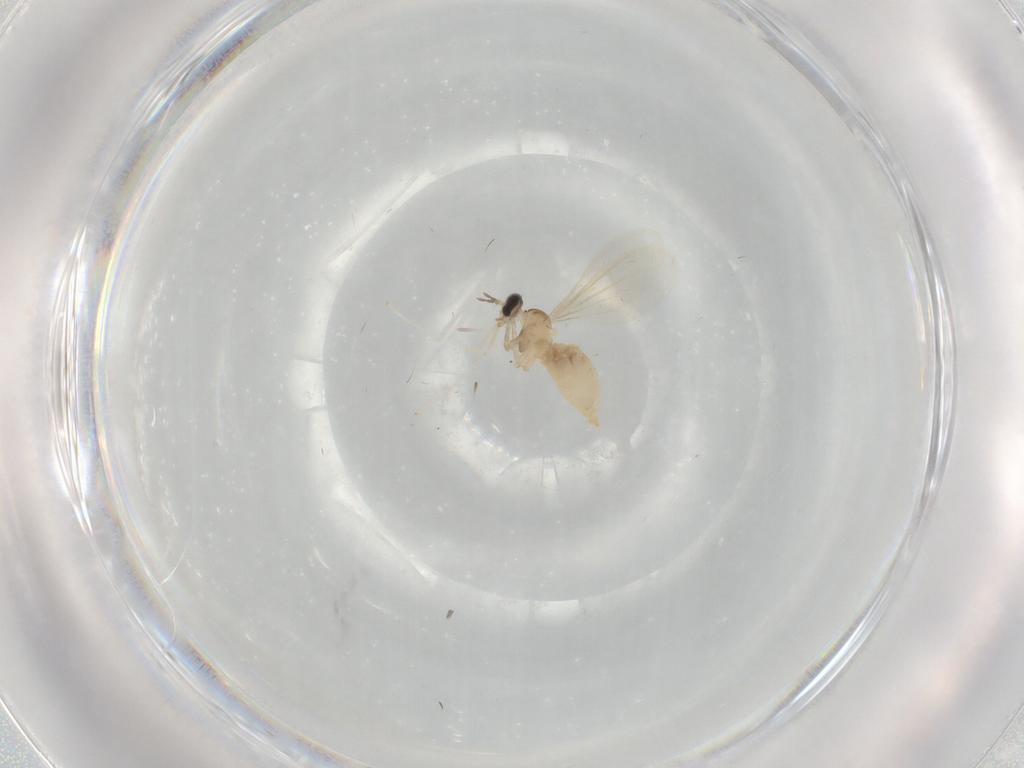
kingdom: Animalia
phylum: Arthropoda
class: Insecta
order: Diptera
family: Cecidomyiidae
